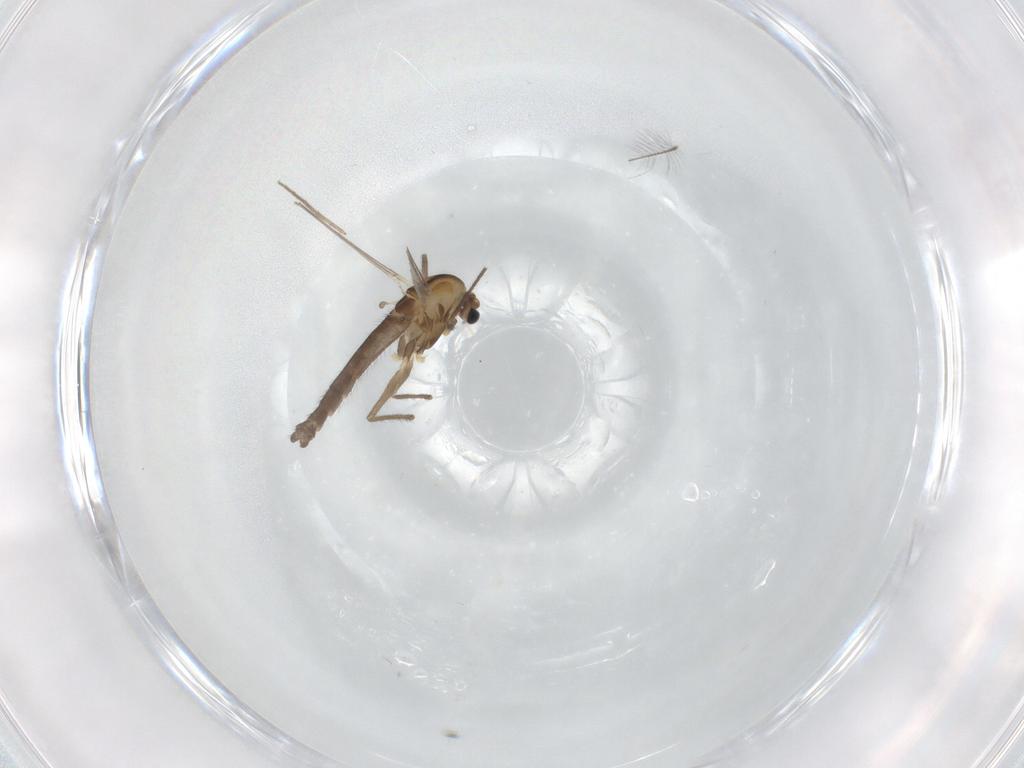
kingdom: Animalia
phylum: Arthropoda
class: Insecta
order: Diptera
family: Chironomidae
